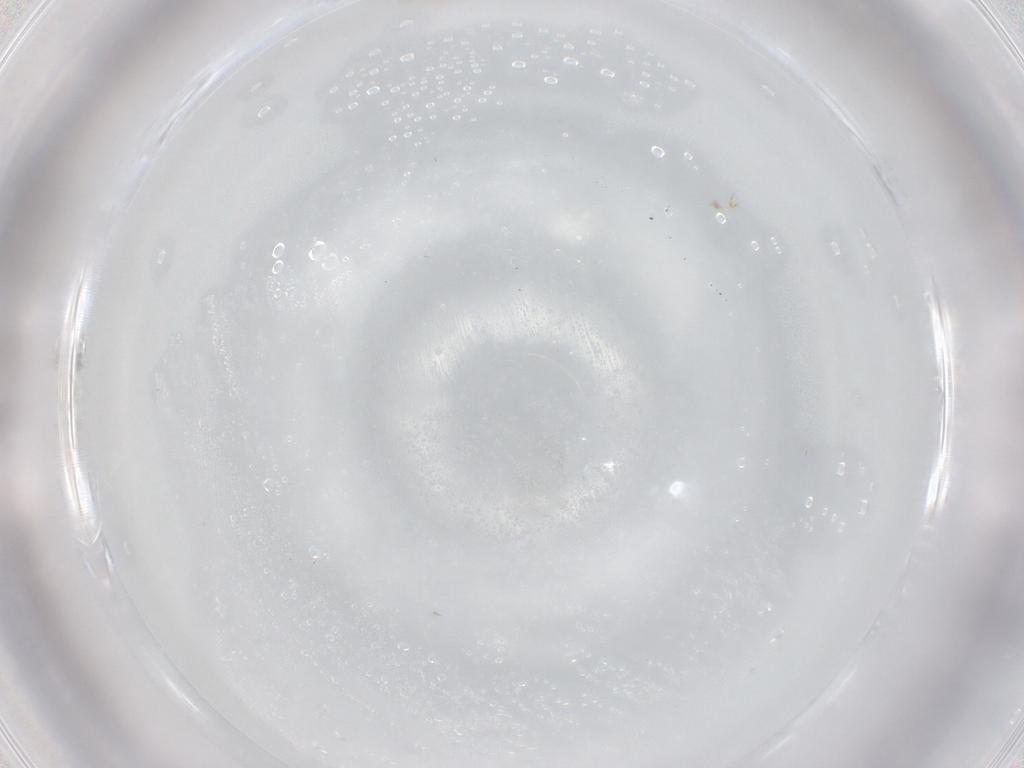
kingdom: Animalia
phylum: Arthropoda
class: Insecta
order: Diptera
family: Cecidomyiidae
